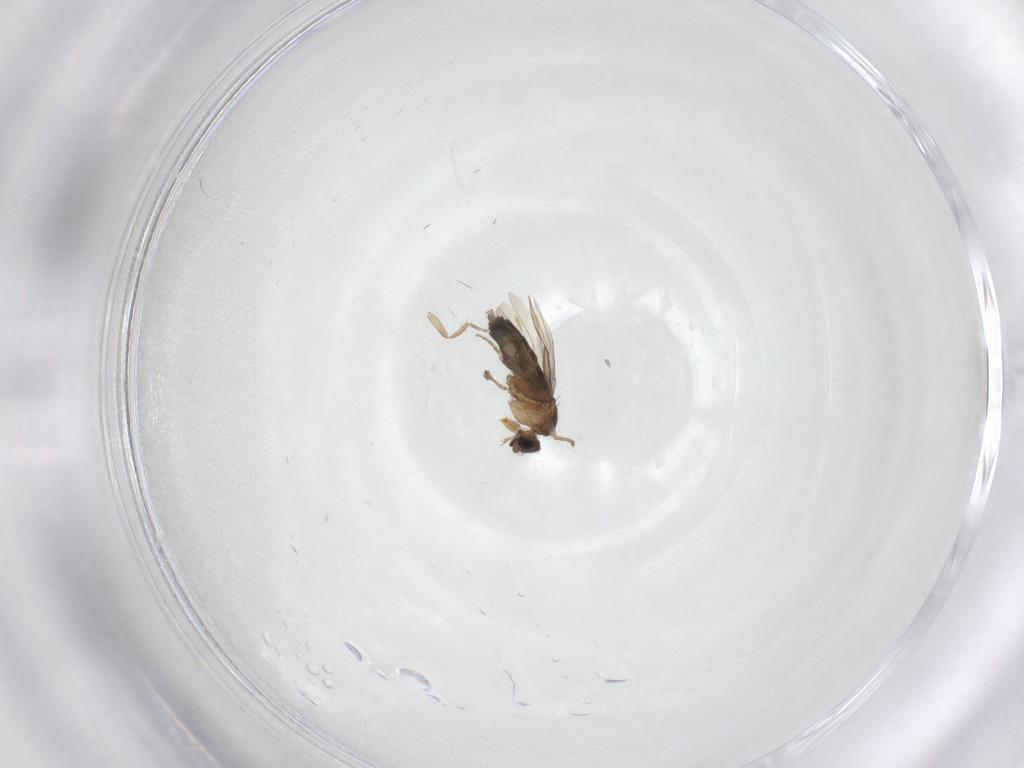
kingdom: Animalia
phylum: Arthropoda
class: Insecta
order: Diptera
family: Phoridae
